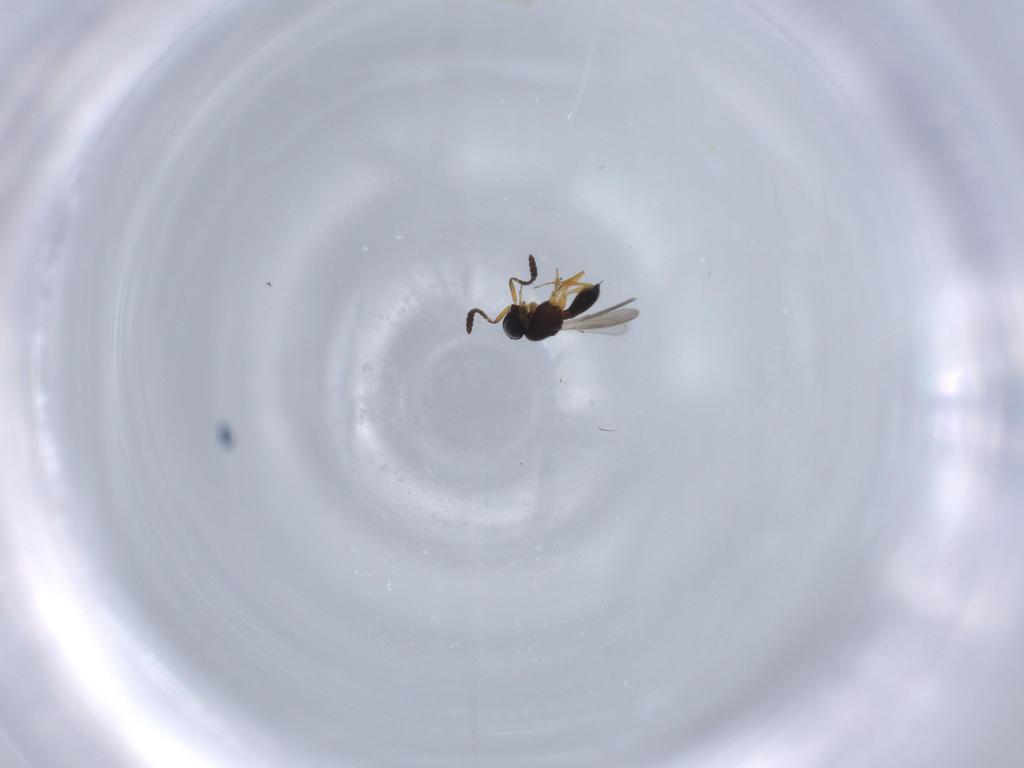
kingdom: Animalia
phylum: Arthropoda
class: Insecta
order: Hymenoptera
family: Scelionidae
